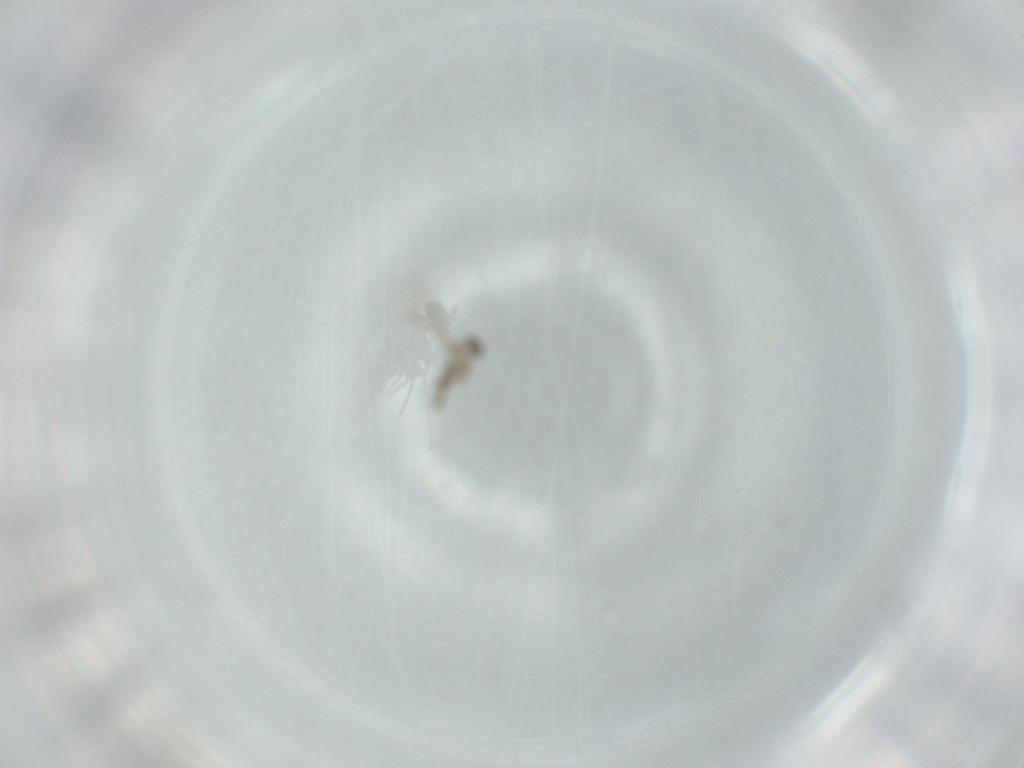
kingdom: Animalia
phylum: Arthropoda
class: Insecta
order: Diptera
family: Cecidomyiidae
